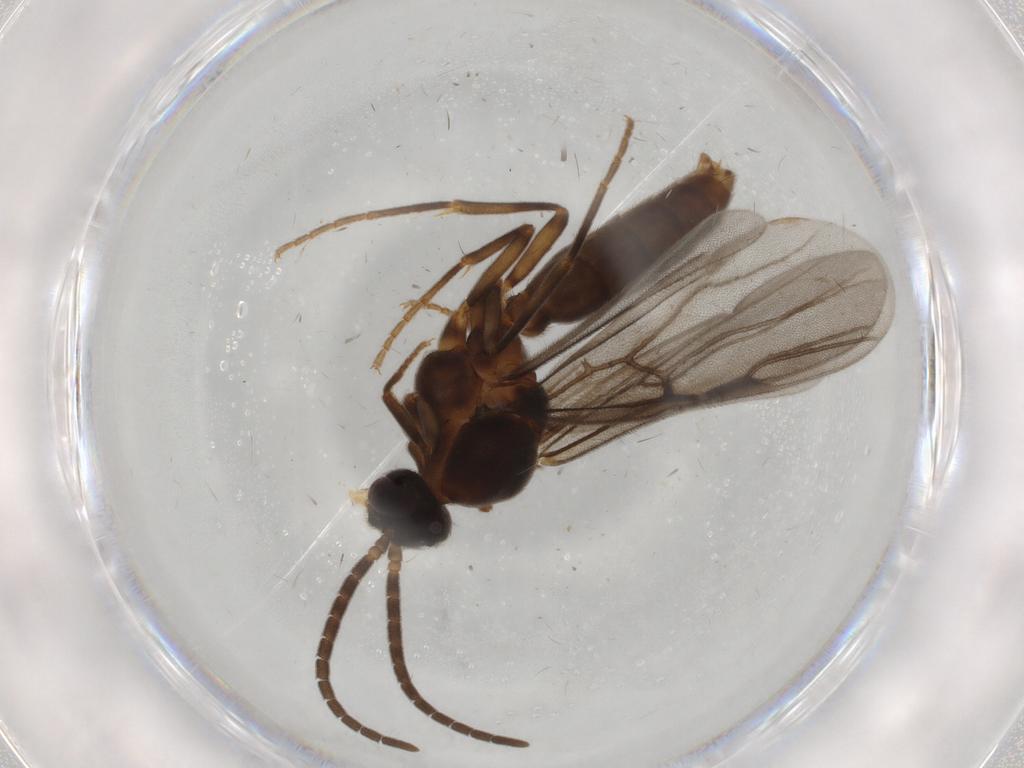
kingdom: Animalia
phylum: Arthropoda
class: Insecta
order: Hymenoptera
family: Formicidae
